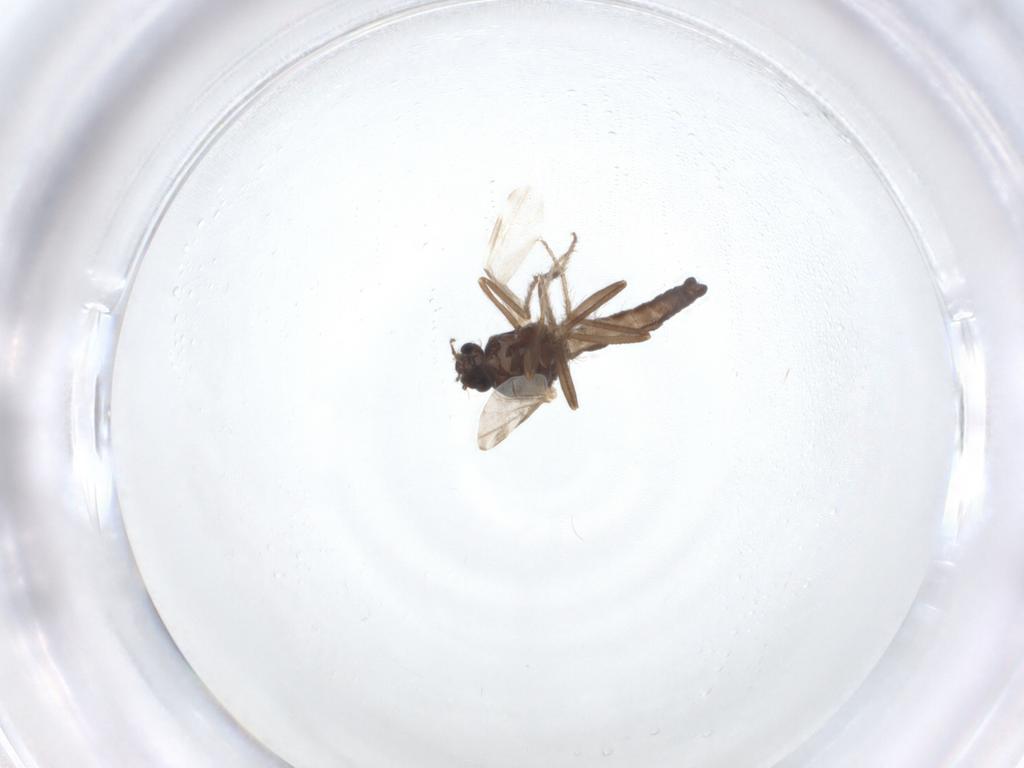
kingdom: Animalia
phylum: Arthropoda
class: Insecta
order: Diptera
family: Ceratopogonidae
